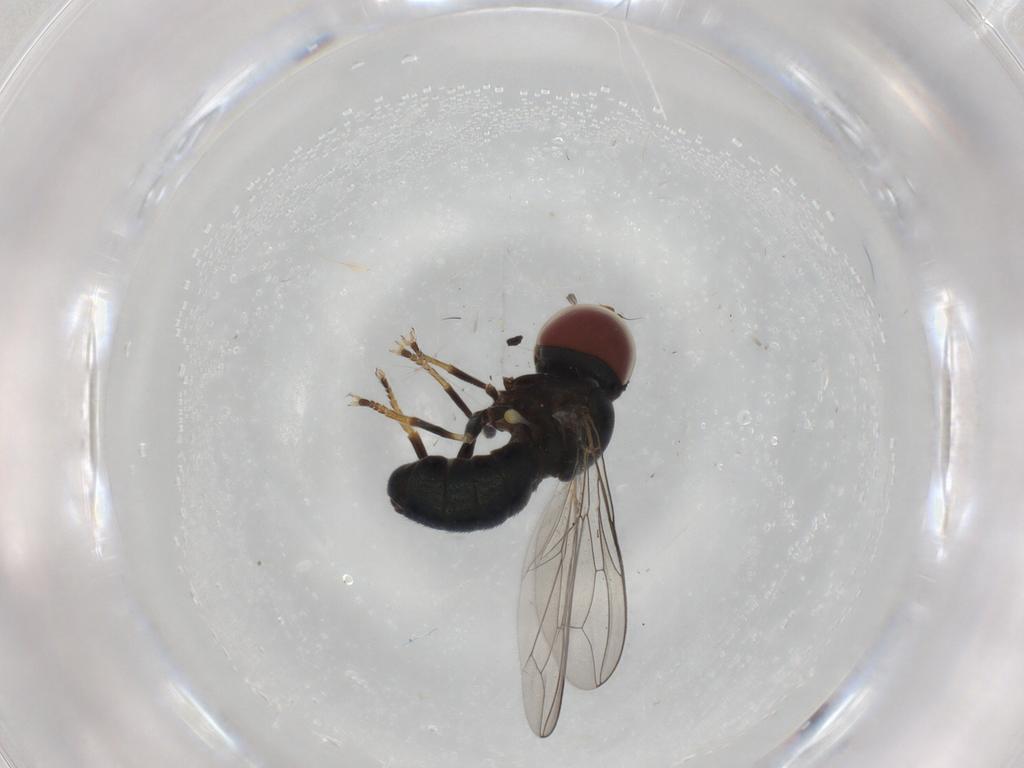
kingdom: Animalia
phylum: Arthropoda
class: Insecta
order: Diptera
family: Pipunculidae
